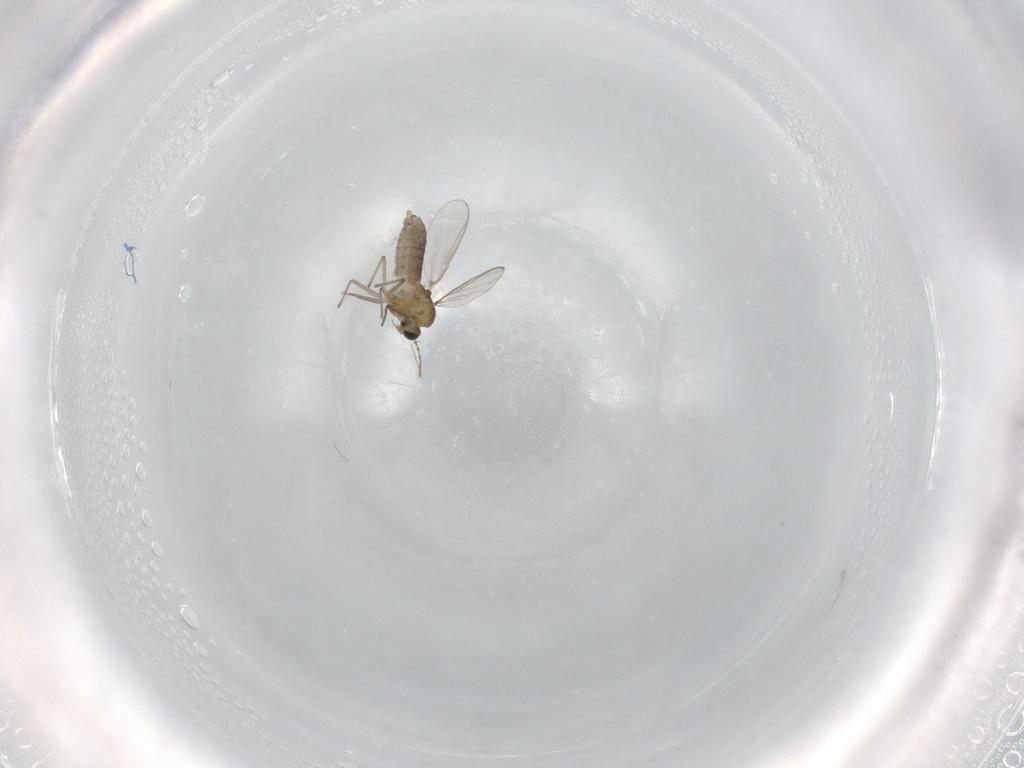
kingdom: Animalia
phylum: Arthropoda
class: Insecta
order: Diptera
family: Chironomidae
